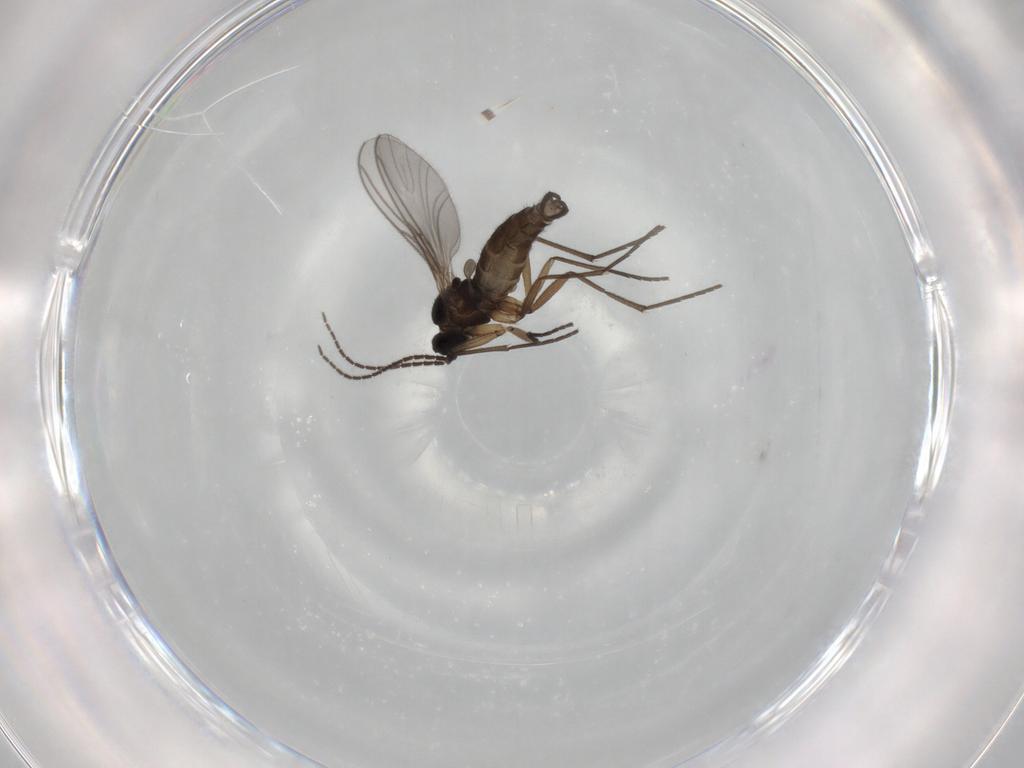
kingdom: Animalia
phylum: Arthropoda
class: Insecta
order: Diptera
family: Sciaridae
